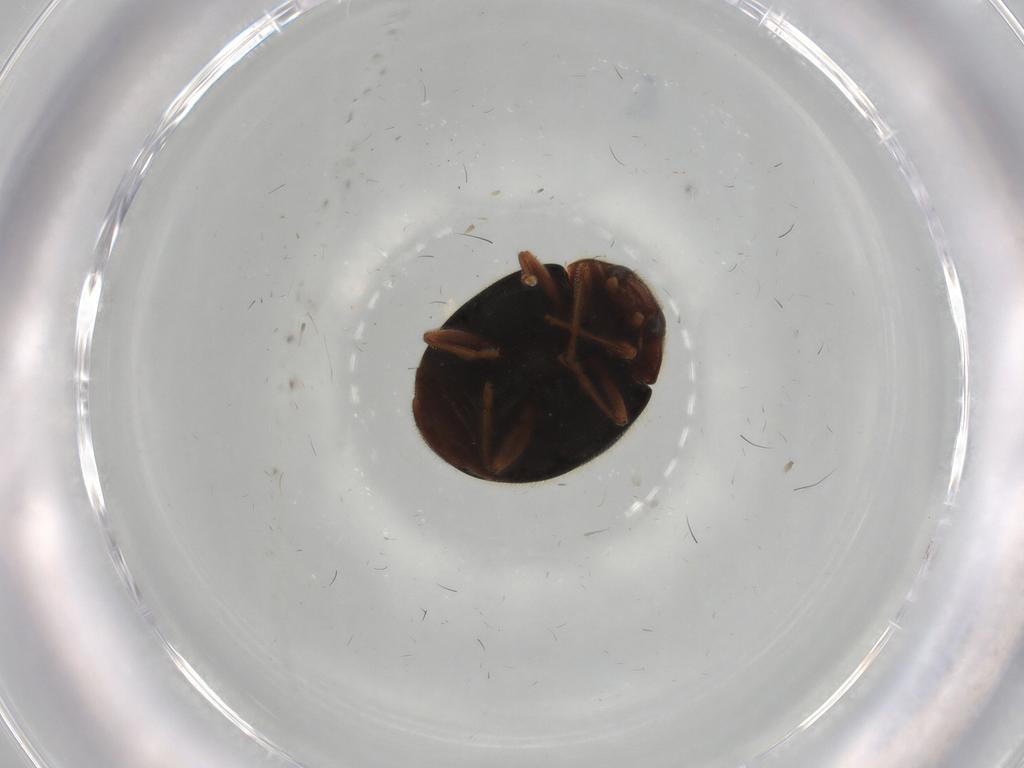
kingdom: Animalia
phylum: Arthropoda
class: Insecta
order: Coleoptera
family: Coccinellidae
